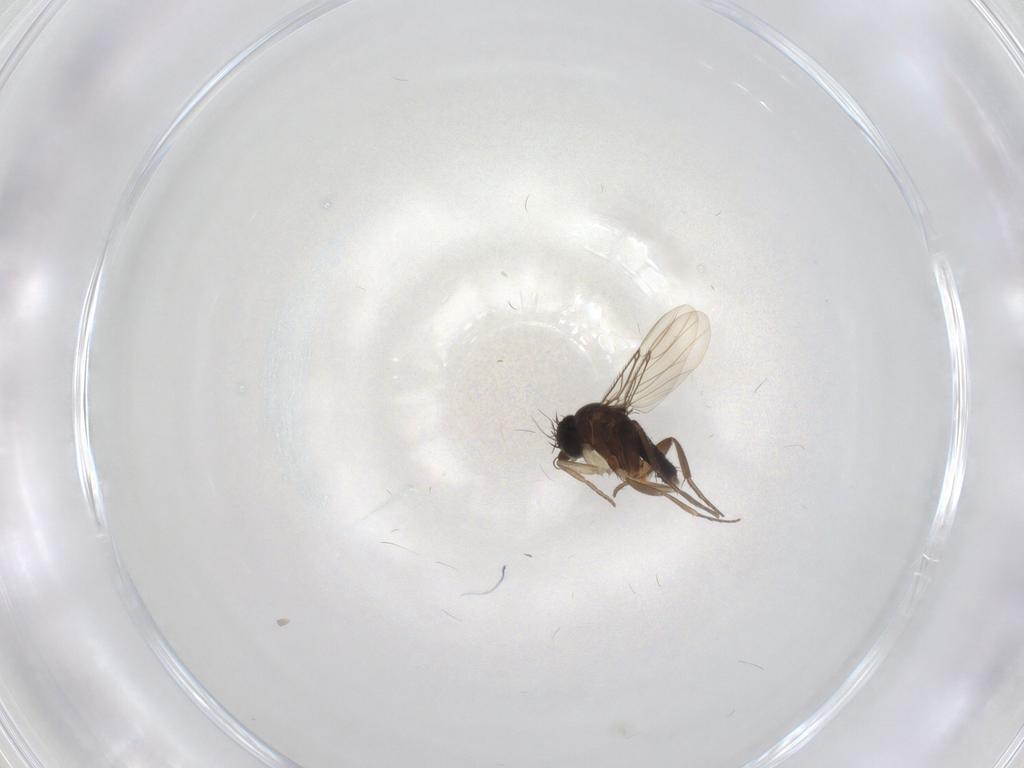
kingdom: Animalia
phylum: Arthropoda
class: Insecta
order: Diptera
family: Phoridae
